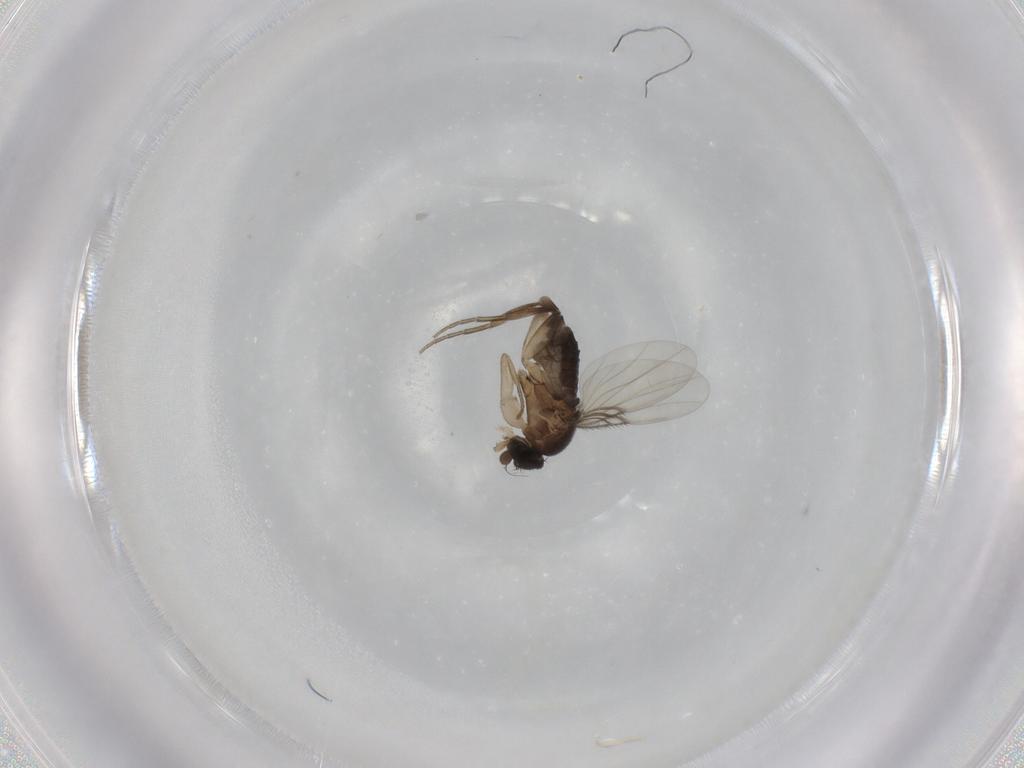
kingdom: Animalia
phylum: Arthropoda
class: Insecta
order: Diptera
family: Phoridae
